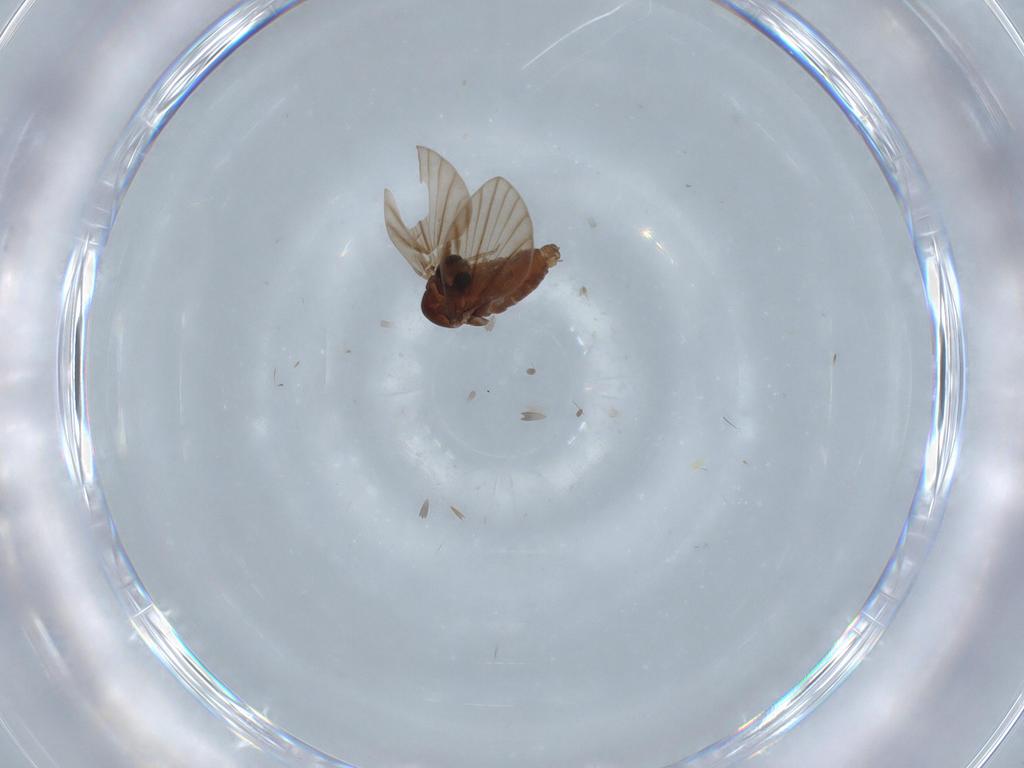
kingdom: Animalia
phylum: Arthropoda
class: Insecta
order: Diptera
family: Psychodidae
